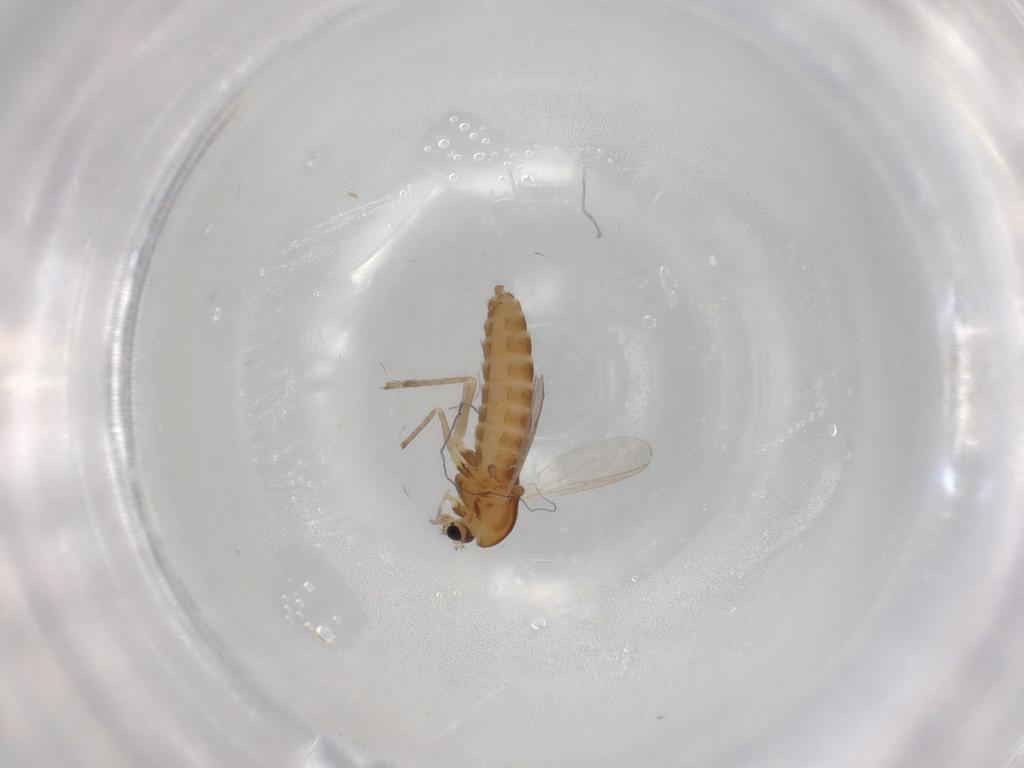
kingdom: Animalia
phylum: Arthropoda
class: Insecta
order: Diptera
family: Chironomidae
